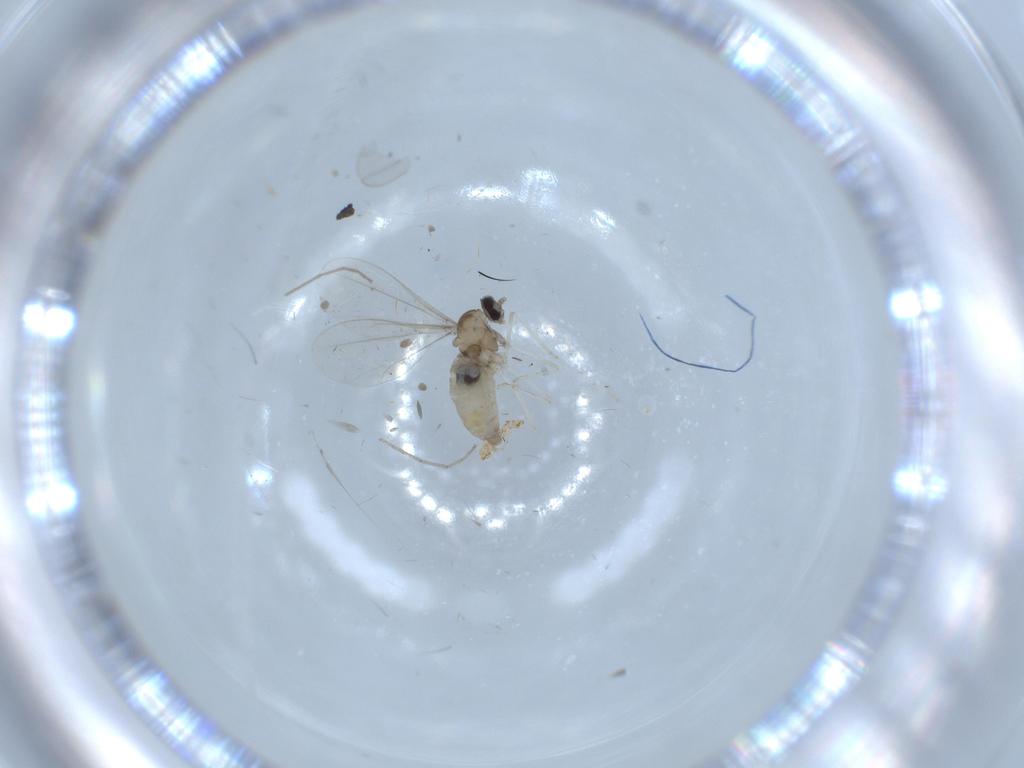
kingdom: Animalia
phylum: Arthropoda
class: Insecta
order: Diptera
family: Cecidomyiidae
